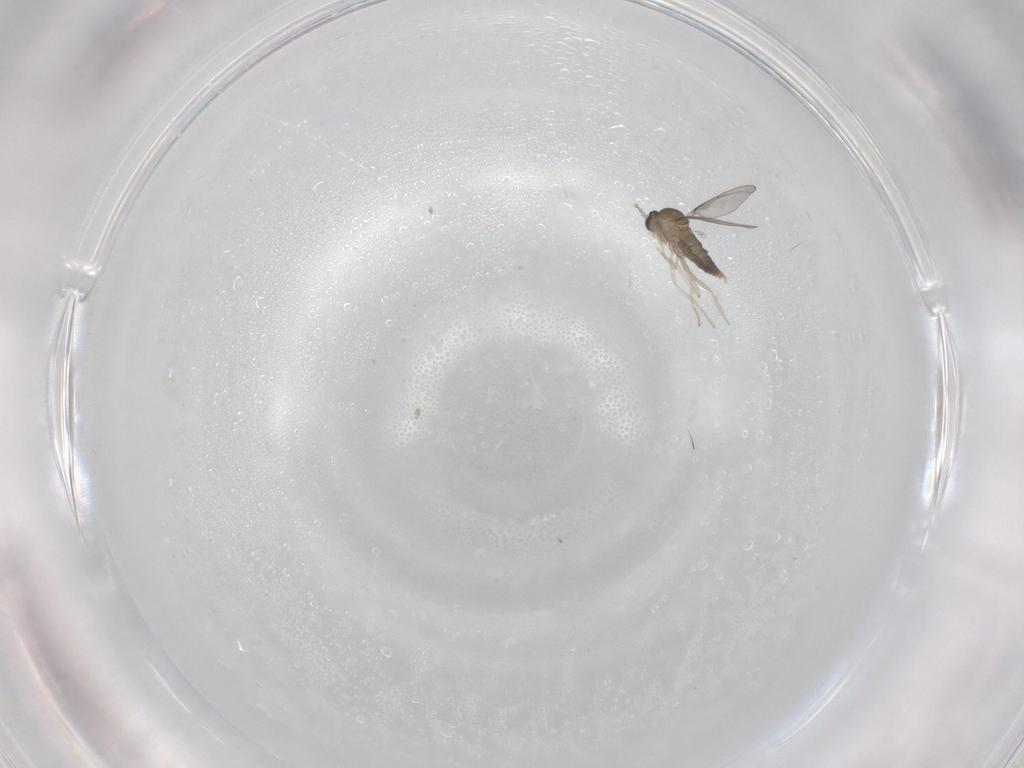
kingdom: Animalia
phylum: Arthropoda
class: Insecta
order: Diptera
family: Cecidomyiidae
